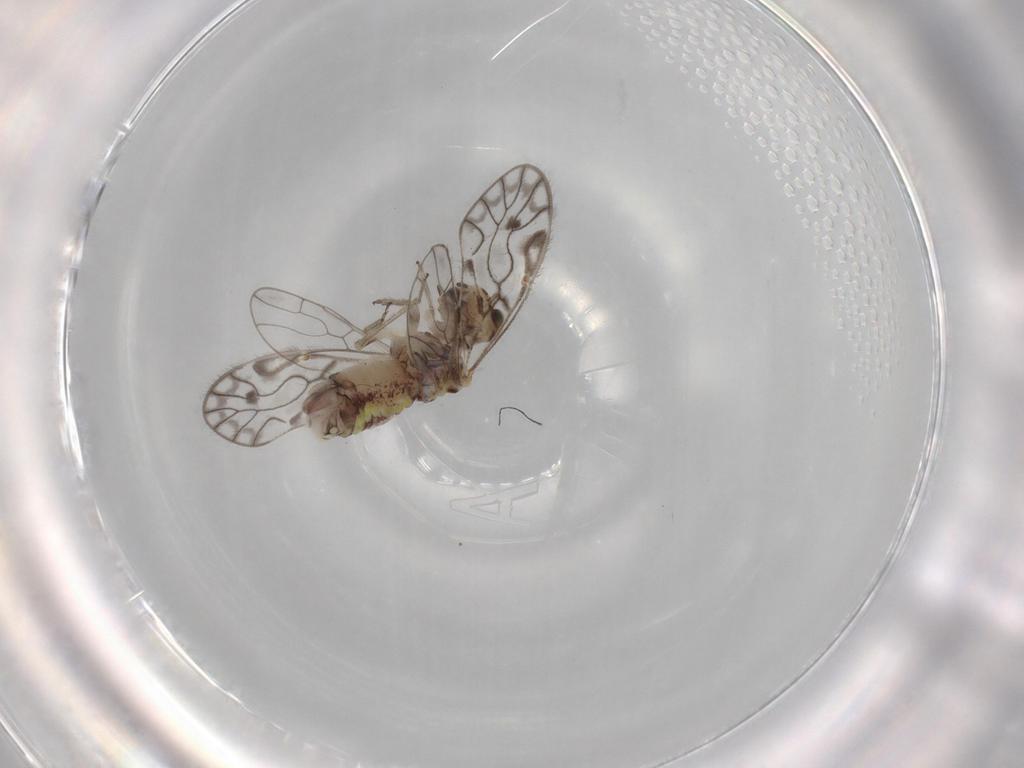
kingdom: Animalia
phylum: Arthropoda
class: Insecta
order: Psocodea
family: Psocidae
